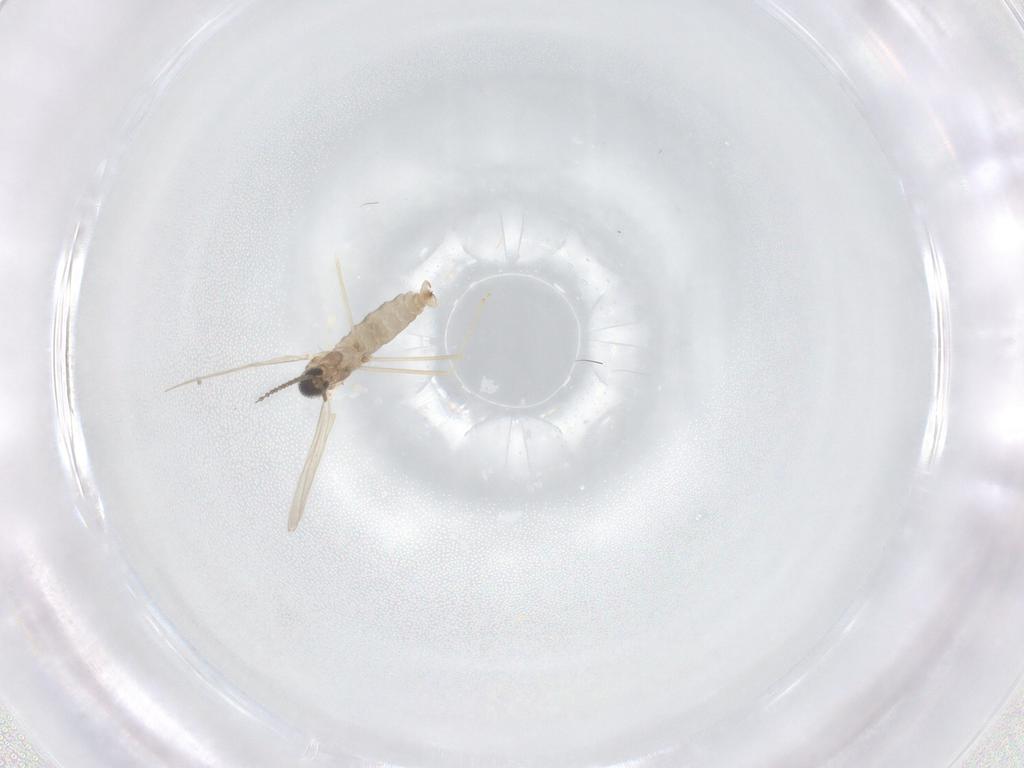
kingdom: Animalia
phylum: Arthropoda
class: Insecta
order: Diptera
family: Cecidomyiidae
